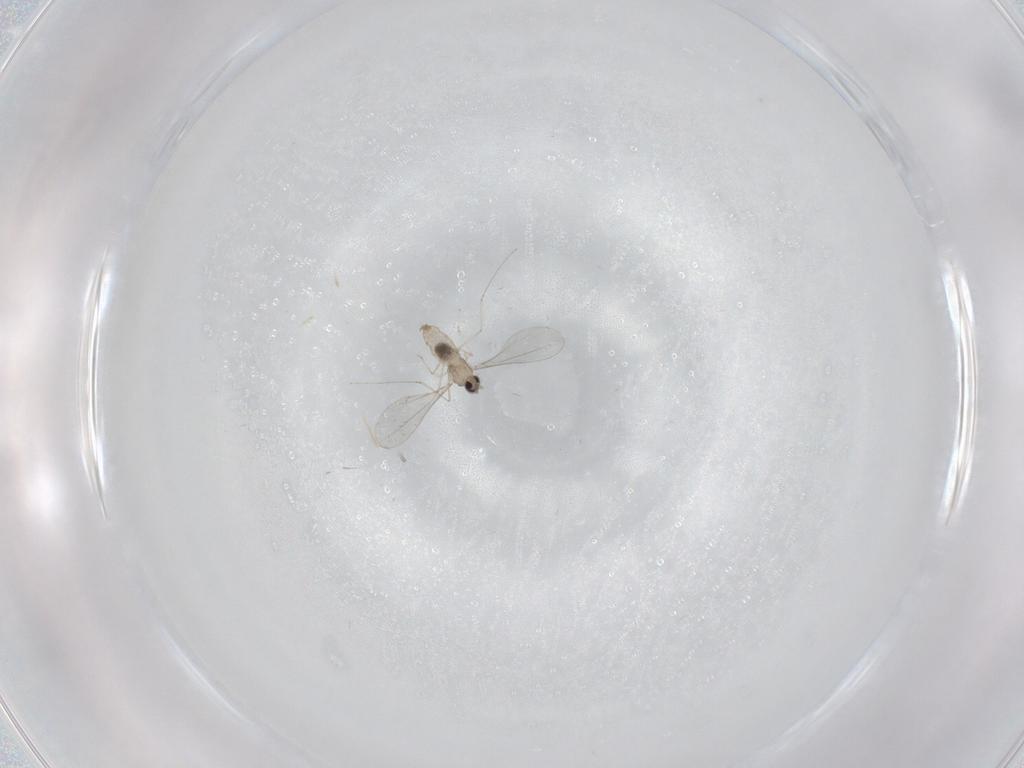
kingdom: Animalia
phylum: Arthropoda
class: Insecta
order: Diptera
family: Cecidomyiidae
